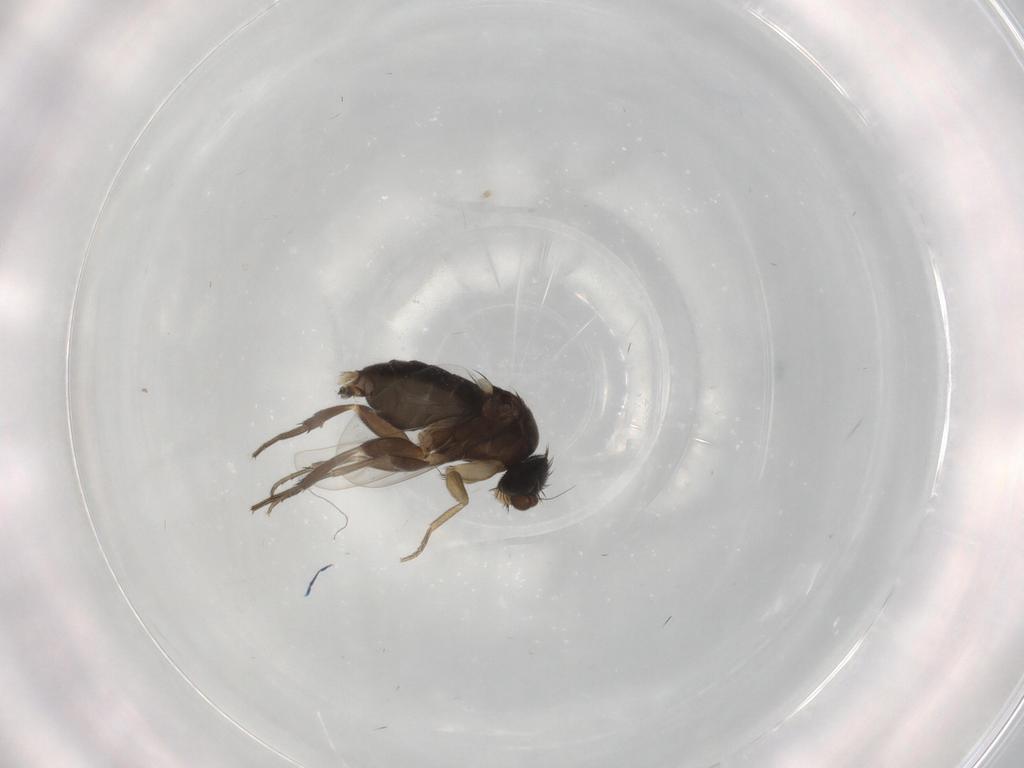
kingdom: Animalia
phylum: Arthropoda
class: Insecta
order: Diptera
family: Phoridae
